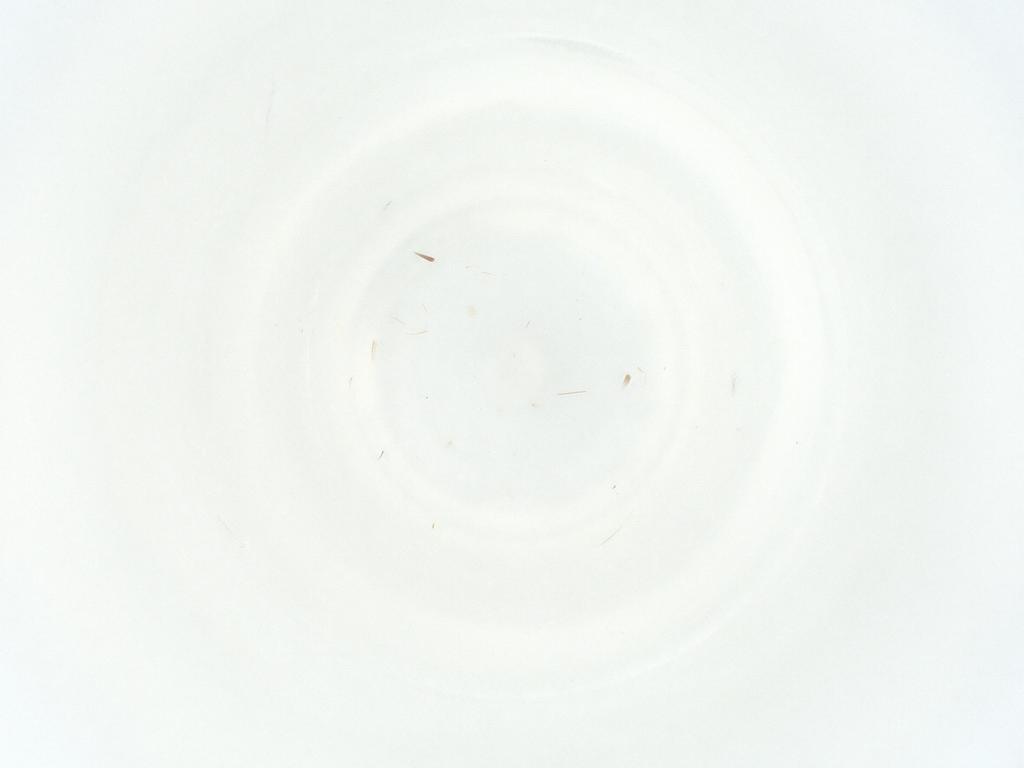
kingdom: Animalia
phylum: Arthropoda
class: Insecta
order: Hemiptera
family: Miridae
